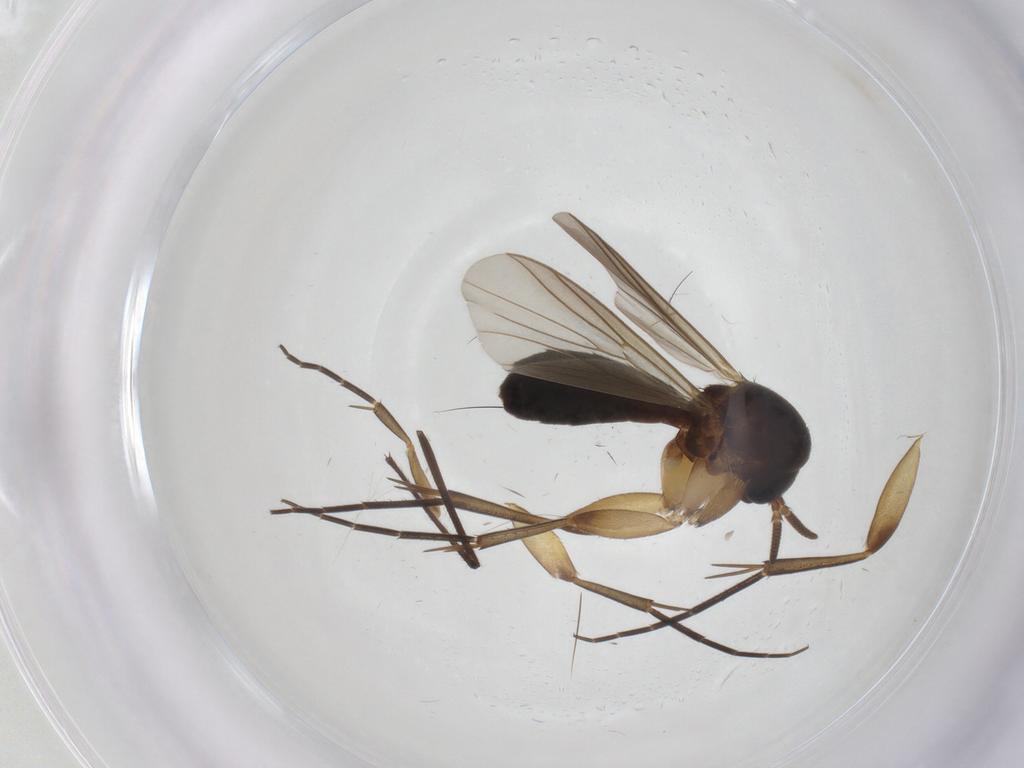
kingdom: Animalia
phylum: Arthropoda
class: Insecta
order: Diptera
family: Mycetophilidae
